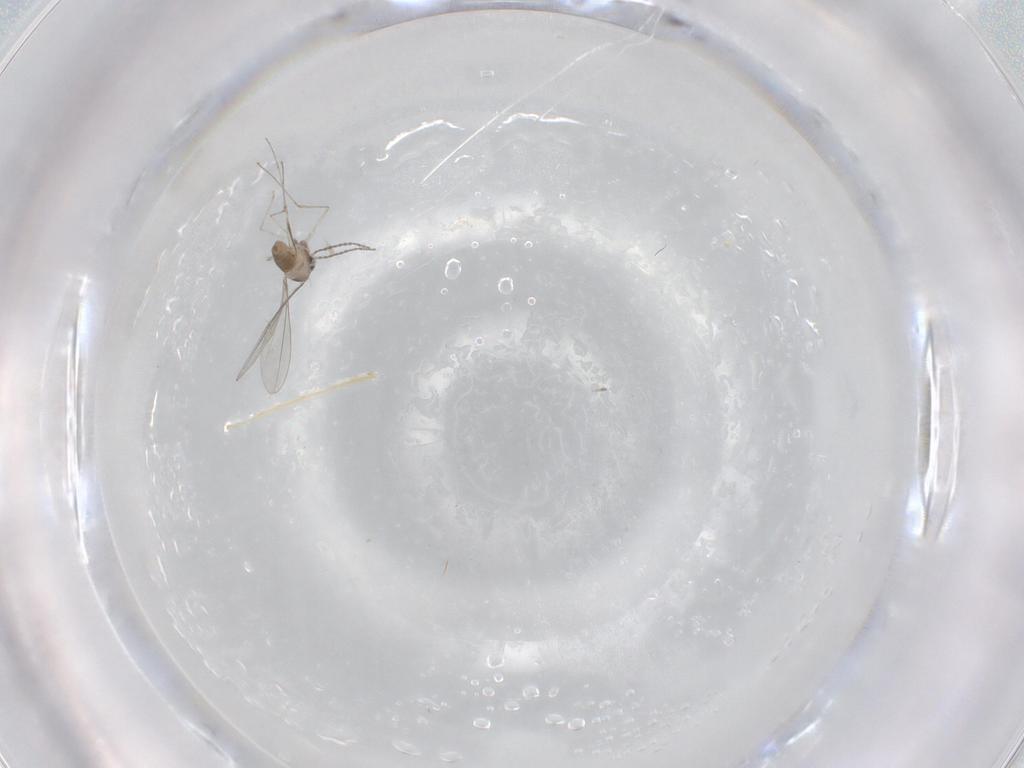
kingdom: Animalia
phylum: Arthropoda
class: Insecta
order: Diptera
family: Cecidomyiidae
